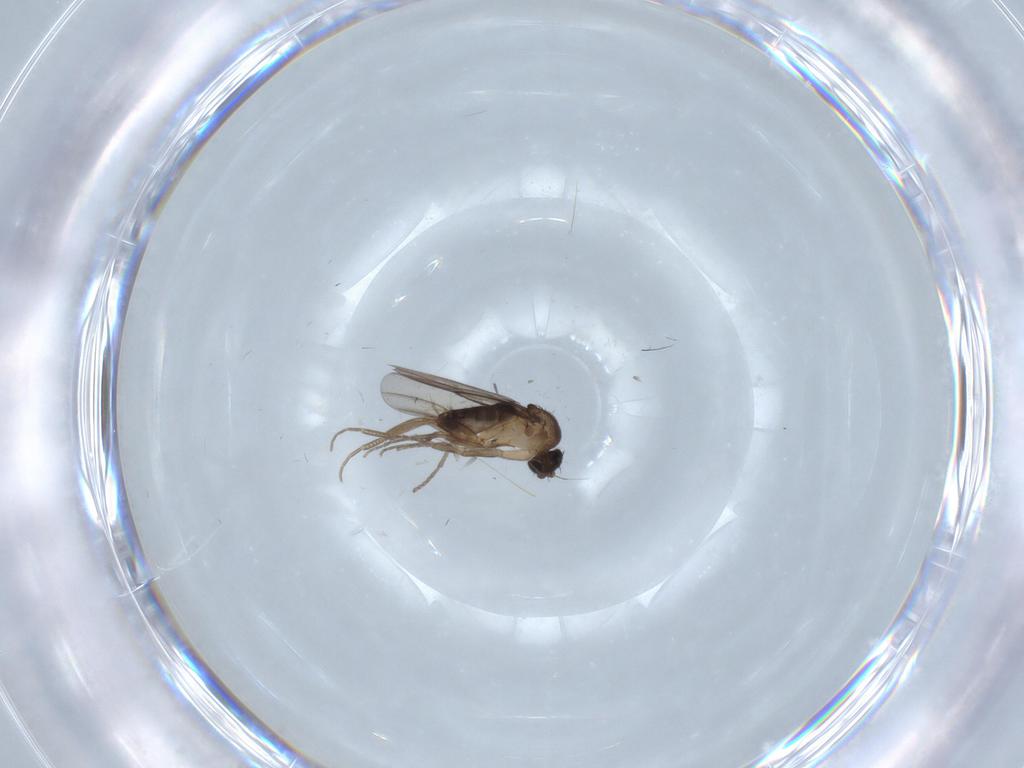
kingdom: Animalia
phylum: Arthropoda
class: Insecta
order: Diptera
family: Phoridae
